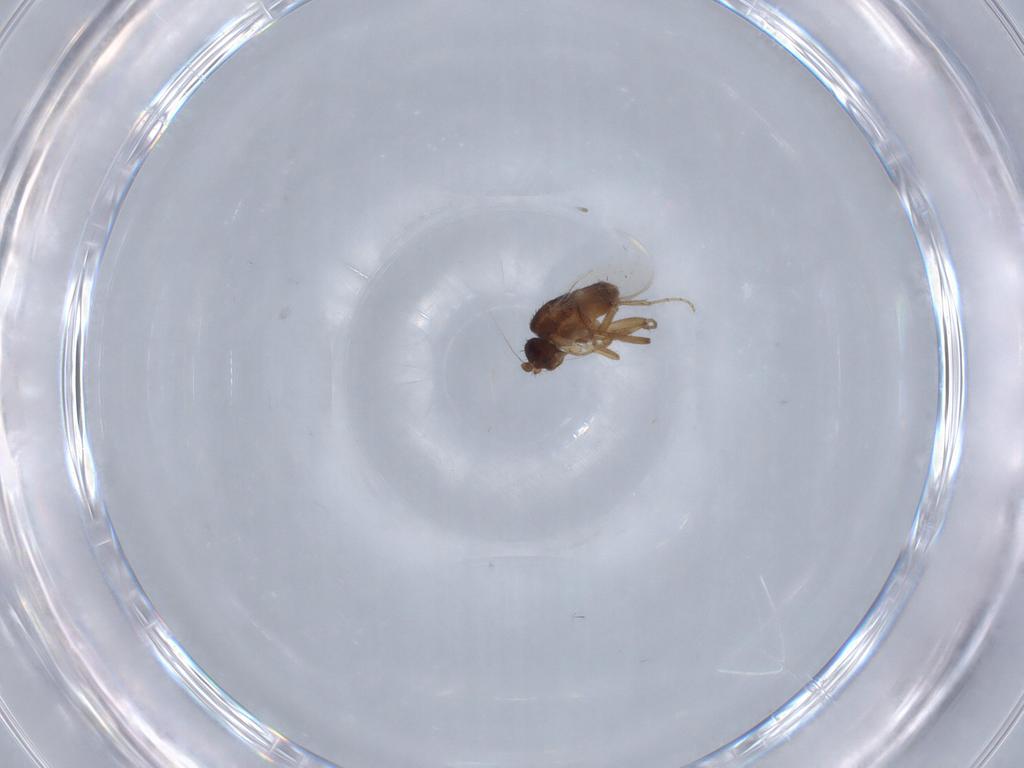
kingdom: Animalia
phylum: Arthropoda
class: Insecta
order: Diptera
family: Sphaeroceridae
